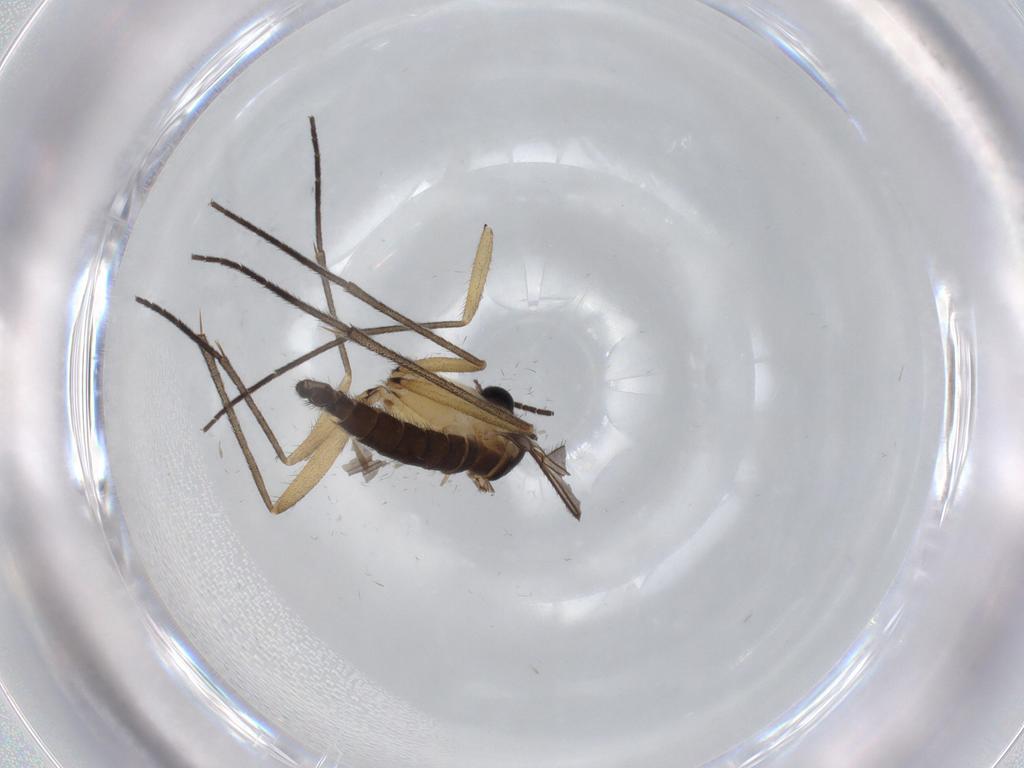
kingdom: Animalia
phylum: Arthropoda
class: Insecta
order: Diptera
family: Sciaridae
